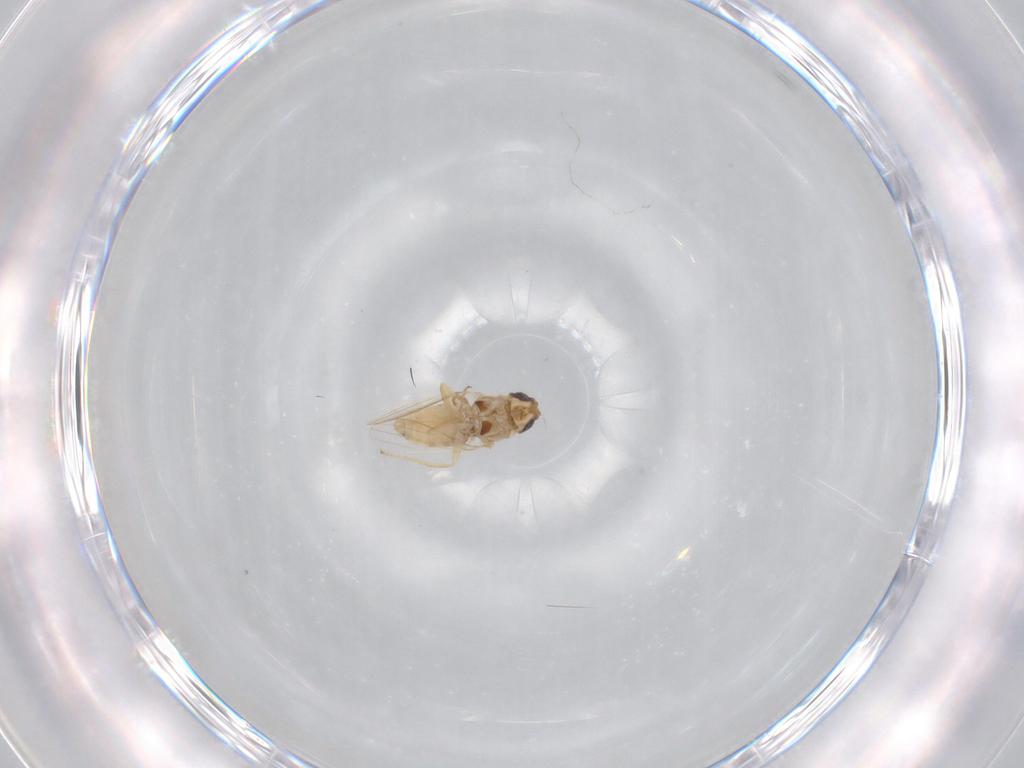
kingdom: Animalia
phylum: Arthropoda
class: Insecta
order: Diptera
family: Chyromyidae
